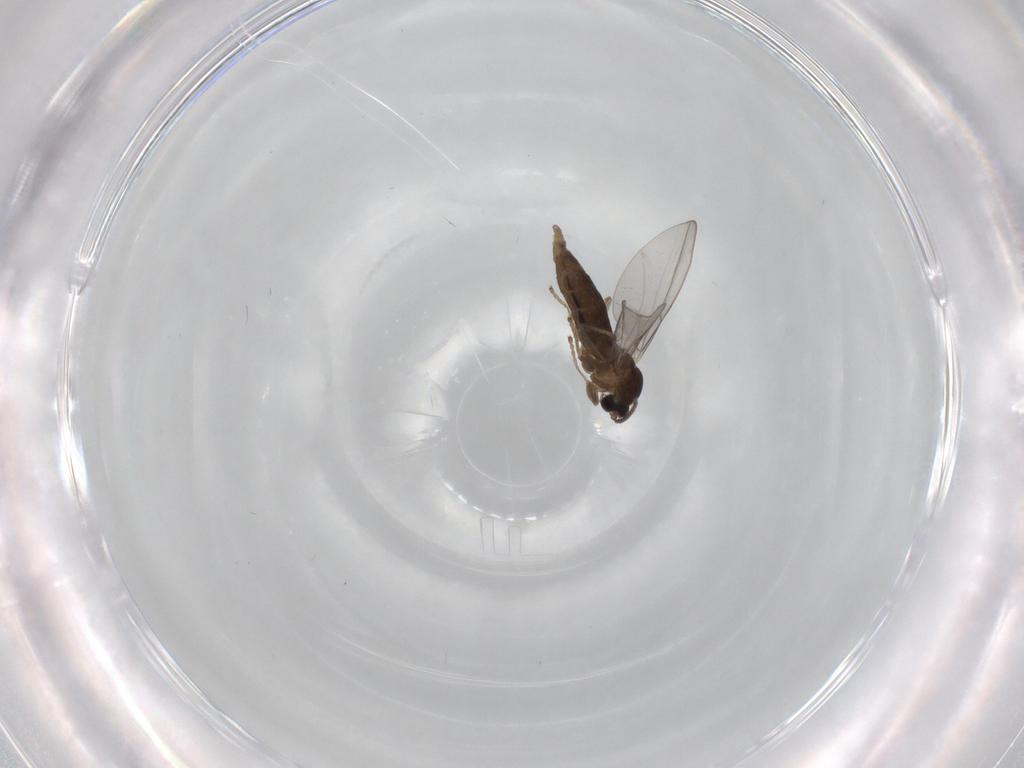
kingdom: Animalia
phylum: Arthropoda
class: Insecta
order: Diptera
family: Cecidomyiidae
